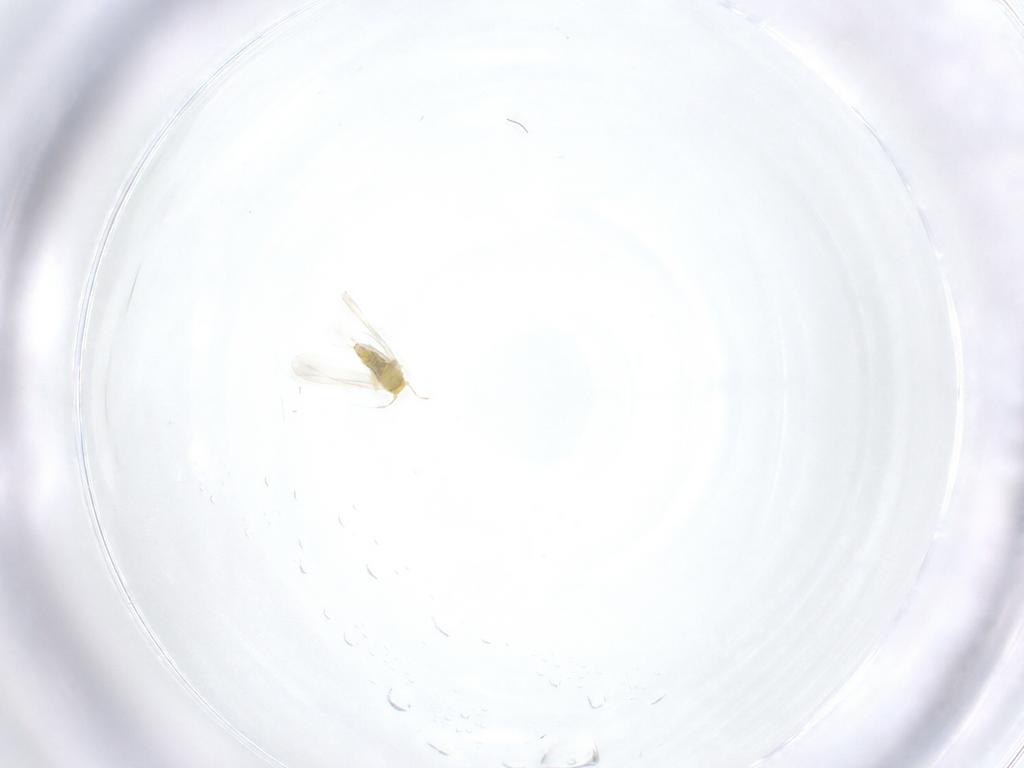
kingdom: Animalia
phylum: Arthropoda
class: Insecta
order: Hemiptera
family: Aleyrodidae
